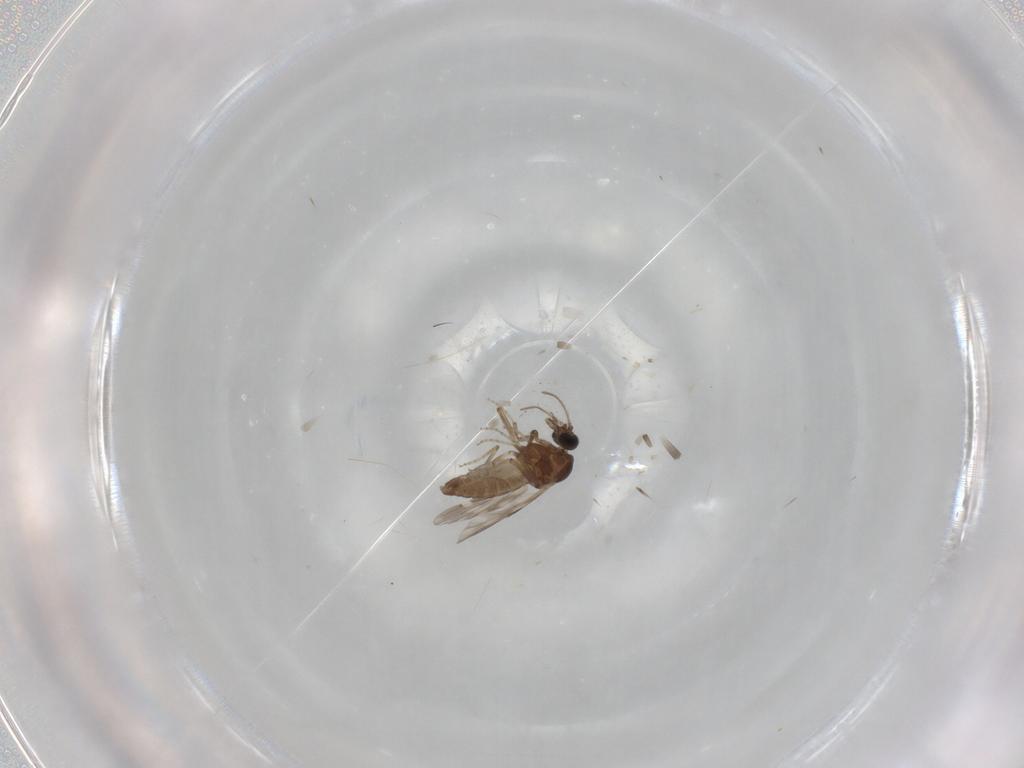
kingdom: Animalia
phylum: Arthropoda
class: Insecta
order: Diptera
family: Ceratopogonidae
